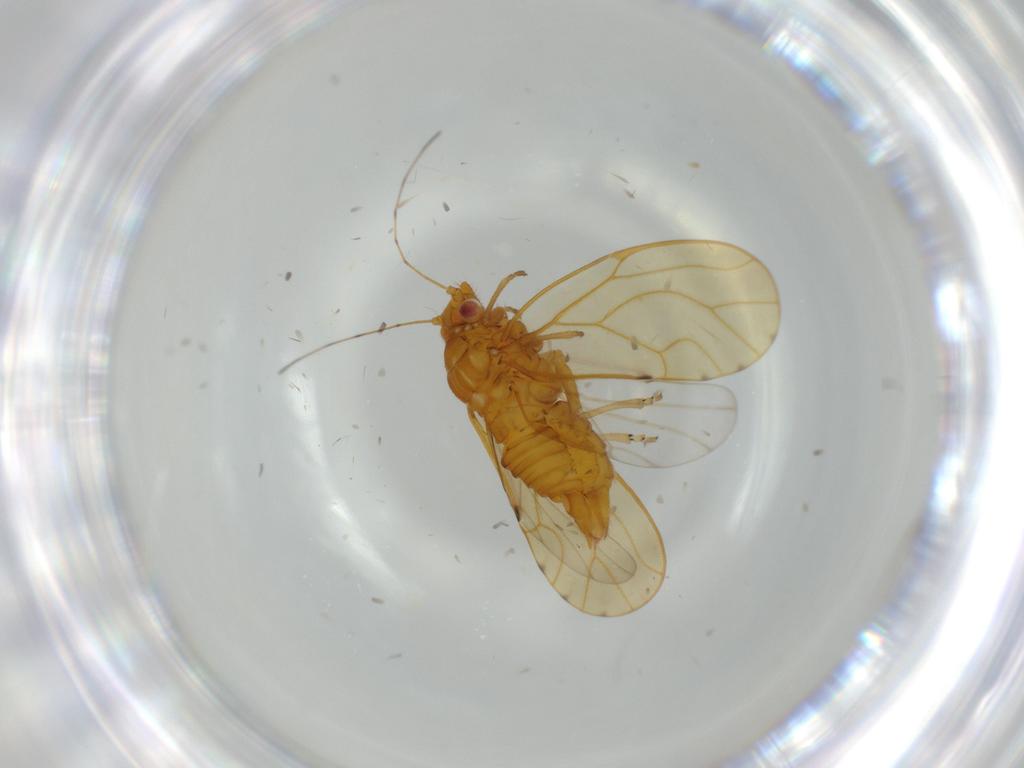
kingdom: Animalia
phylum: Arthropoda
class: Insecta
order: Hemiptera
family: Psylloidea_incertae_sedis
